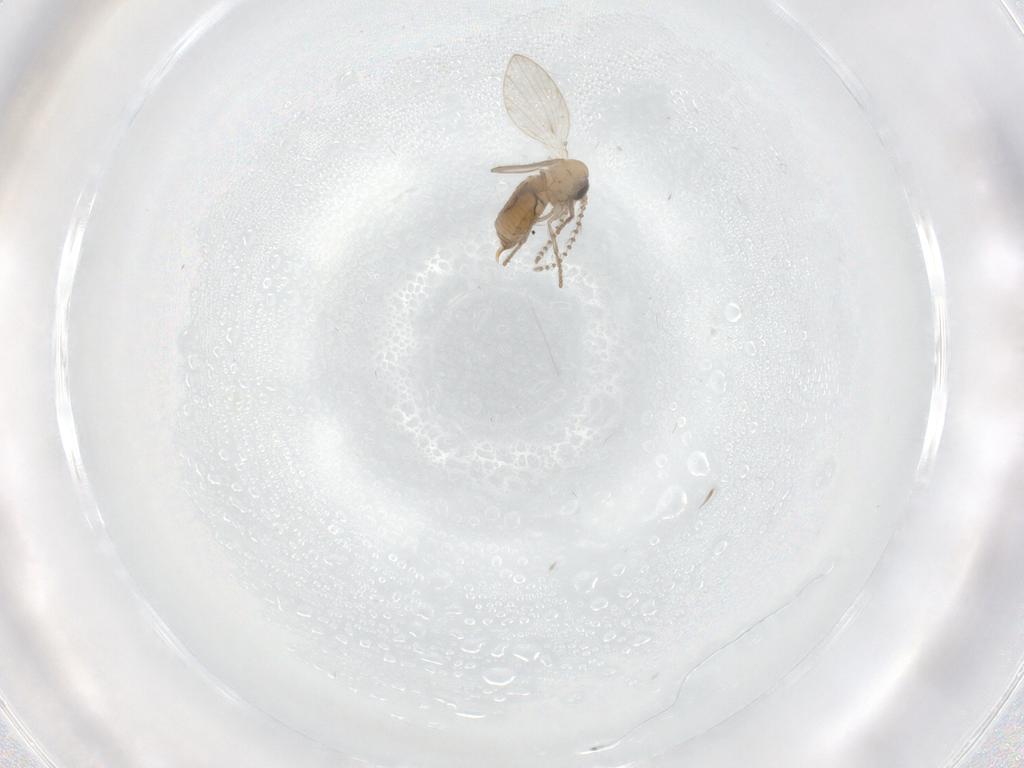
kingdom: Animalia
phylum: Arthropoda
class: Insecta
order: Diptera
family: Psychodidae
